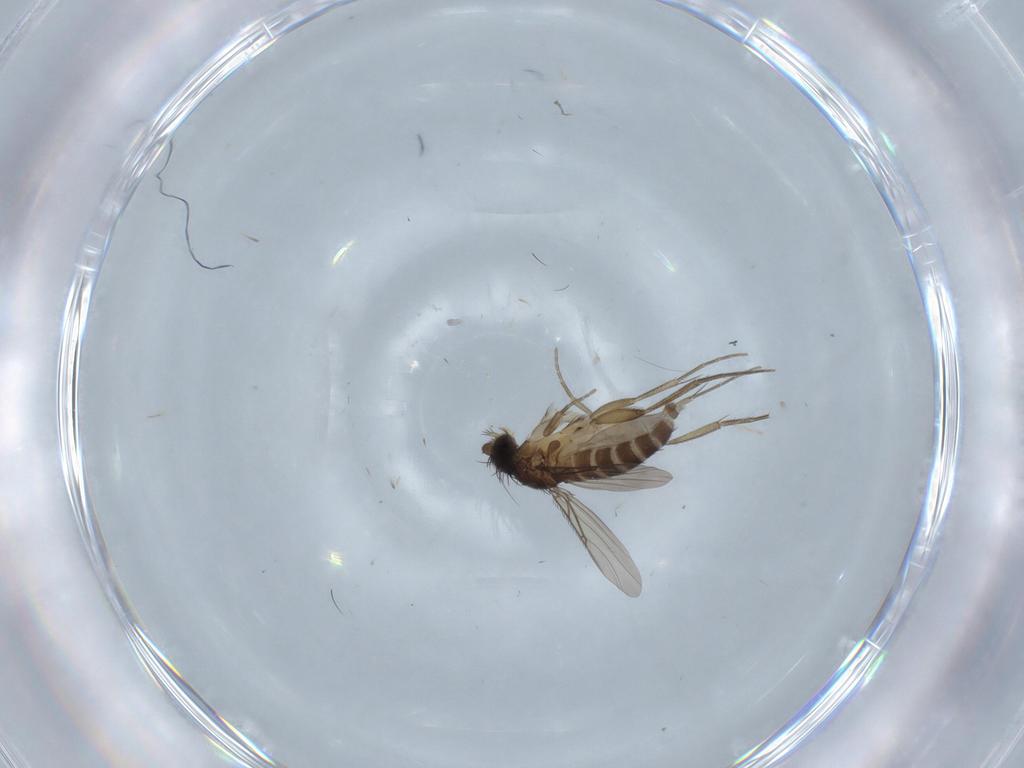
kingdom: Animalia
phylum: Arthropoda
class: Insecta
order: Diptera
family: Phoridae
